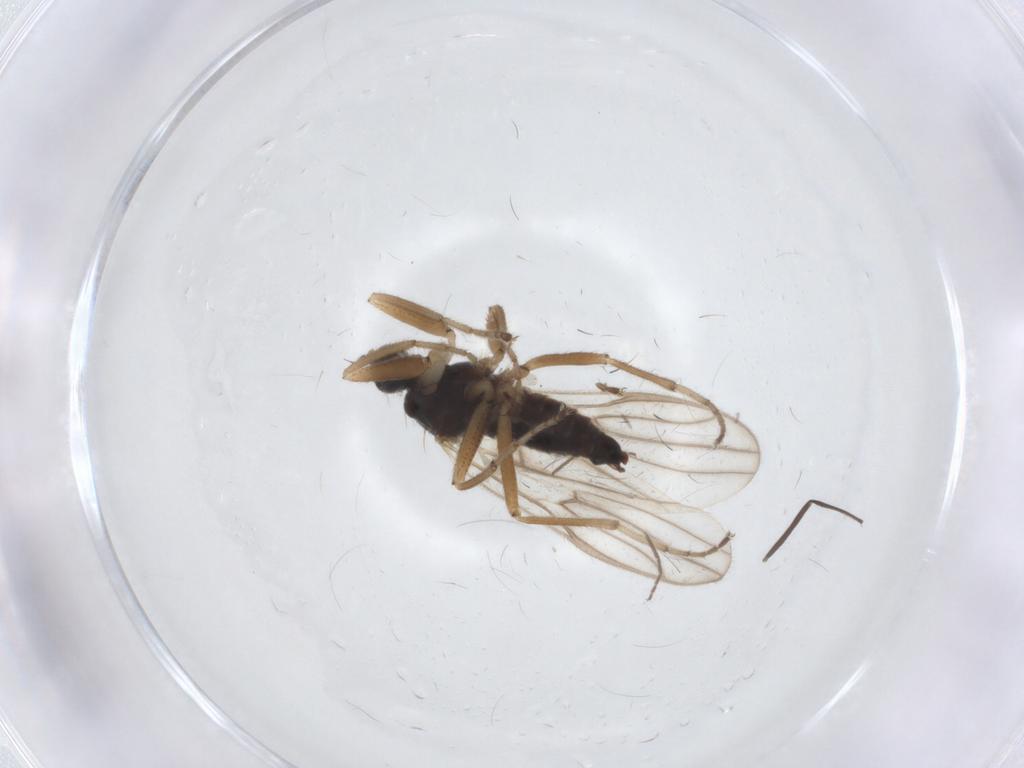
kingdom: Animalia
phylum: Arthropoda
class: Insecta
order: Diptera
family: Hybotidae
